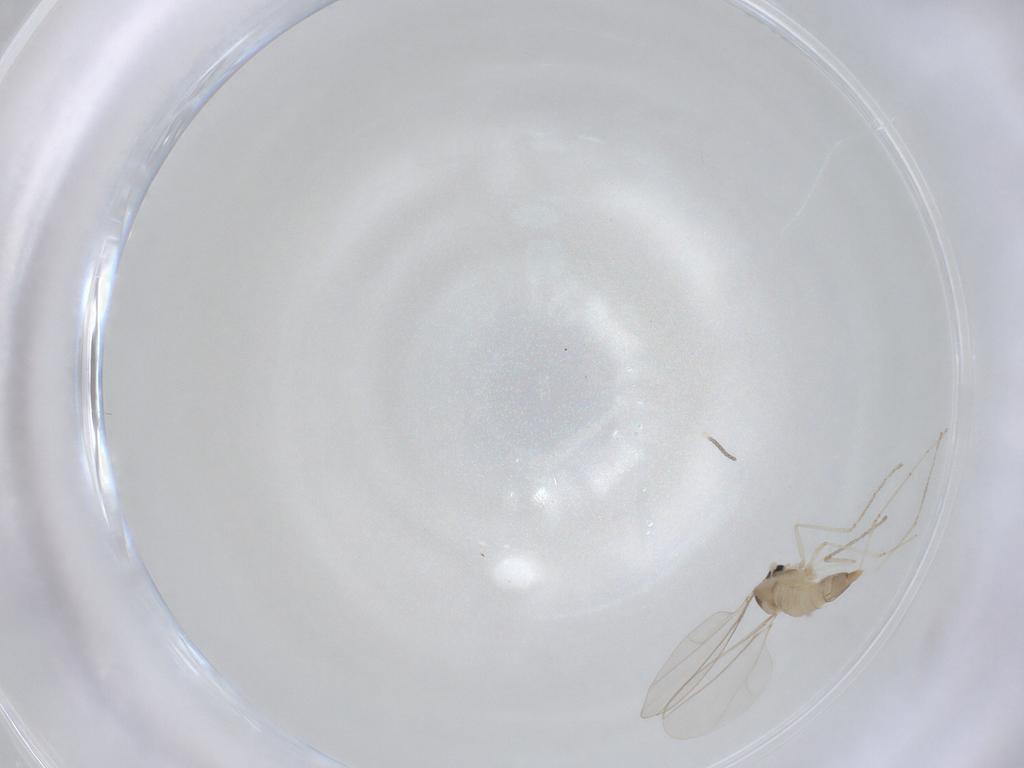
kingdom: Animalia
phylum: Arthropoda
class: Insecta
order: Diptera
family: Cecidomyiidae
